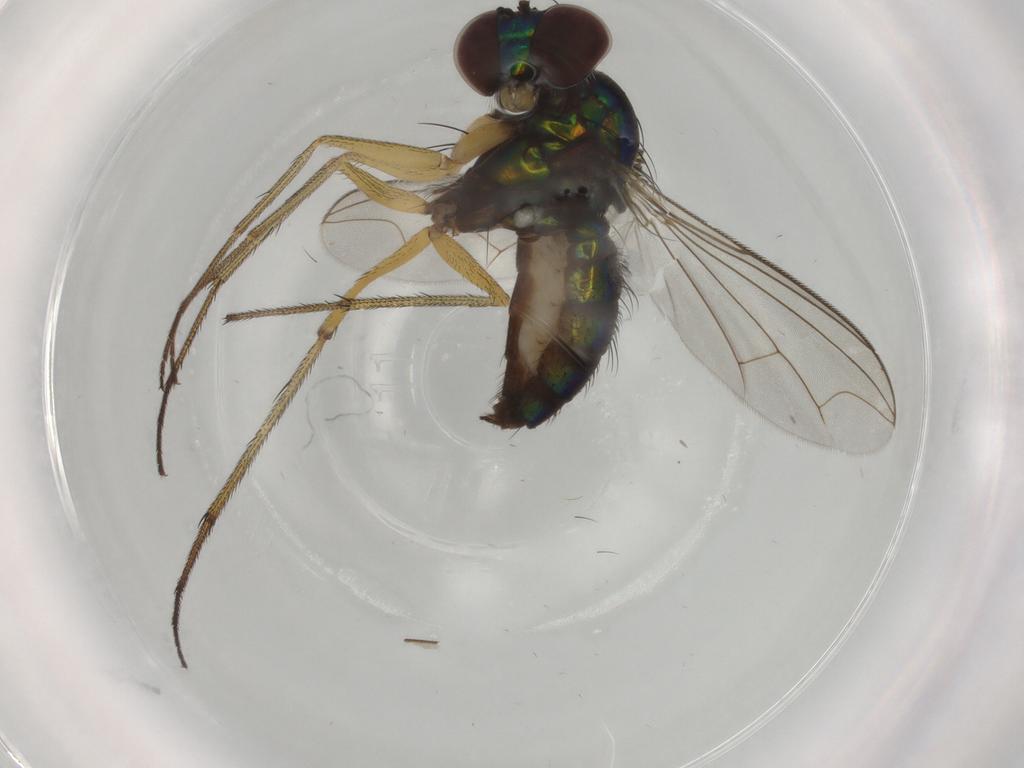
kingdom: Animalia
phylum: Arthropoda
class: Insecta
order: Diptera
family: Dolichopodidae
